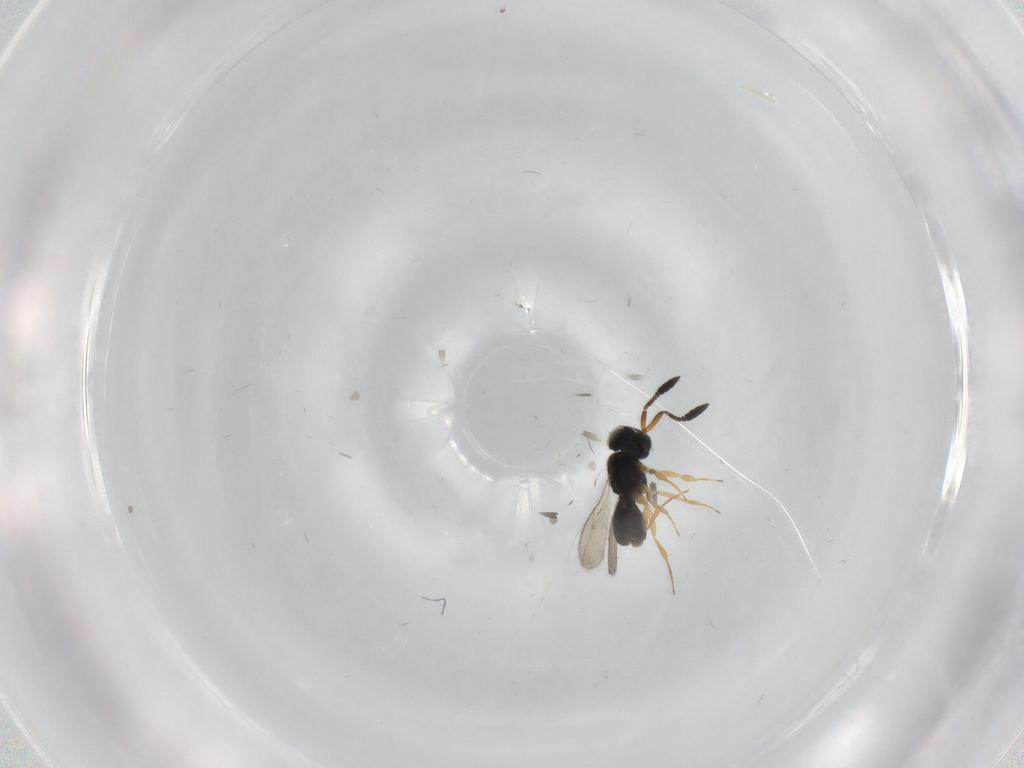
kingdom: Animalia
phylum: Arthropoda
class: Insecta
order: Hymenoptera
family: Scelionidae
